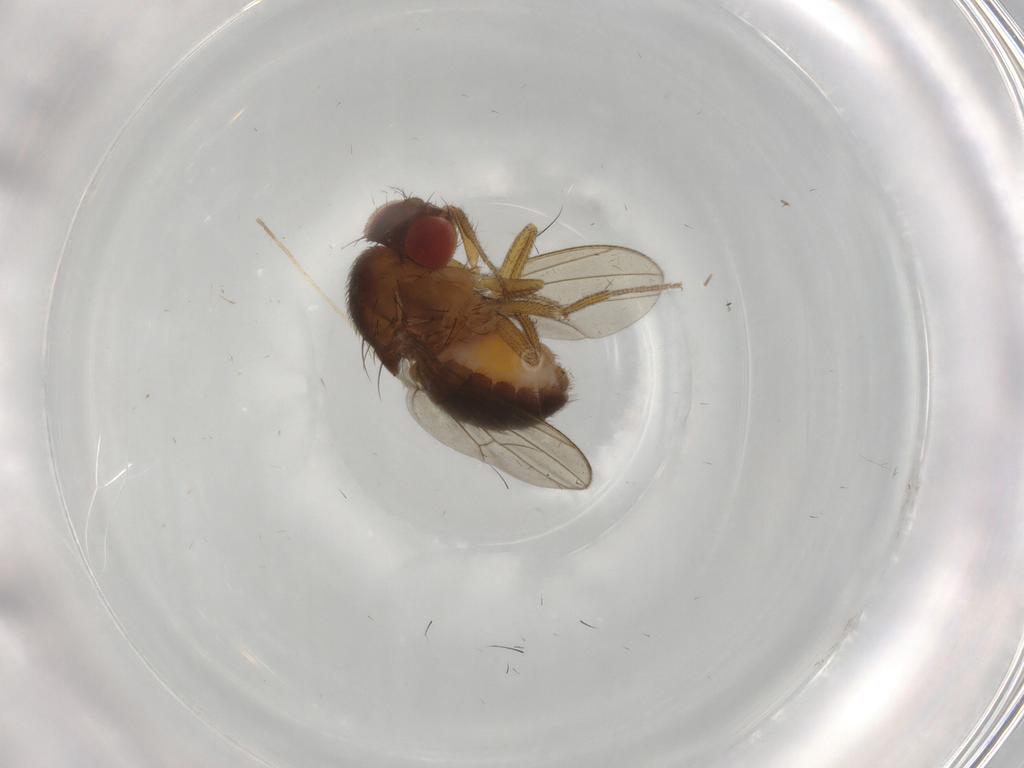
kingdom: Animalia
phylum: Arthropoda
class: Insecta
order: Diptera
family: Drosophilidae
